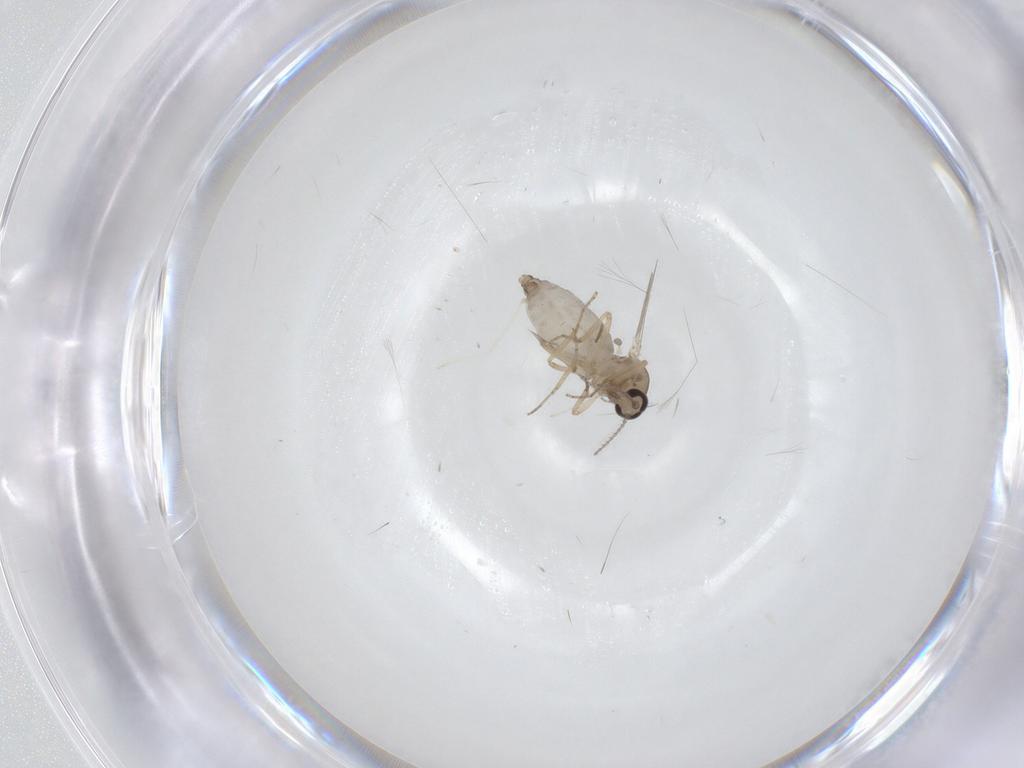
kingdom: Animalia
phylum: Arthropoda
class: Insecta
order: Diptera
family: Ceratopogonidae
